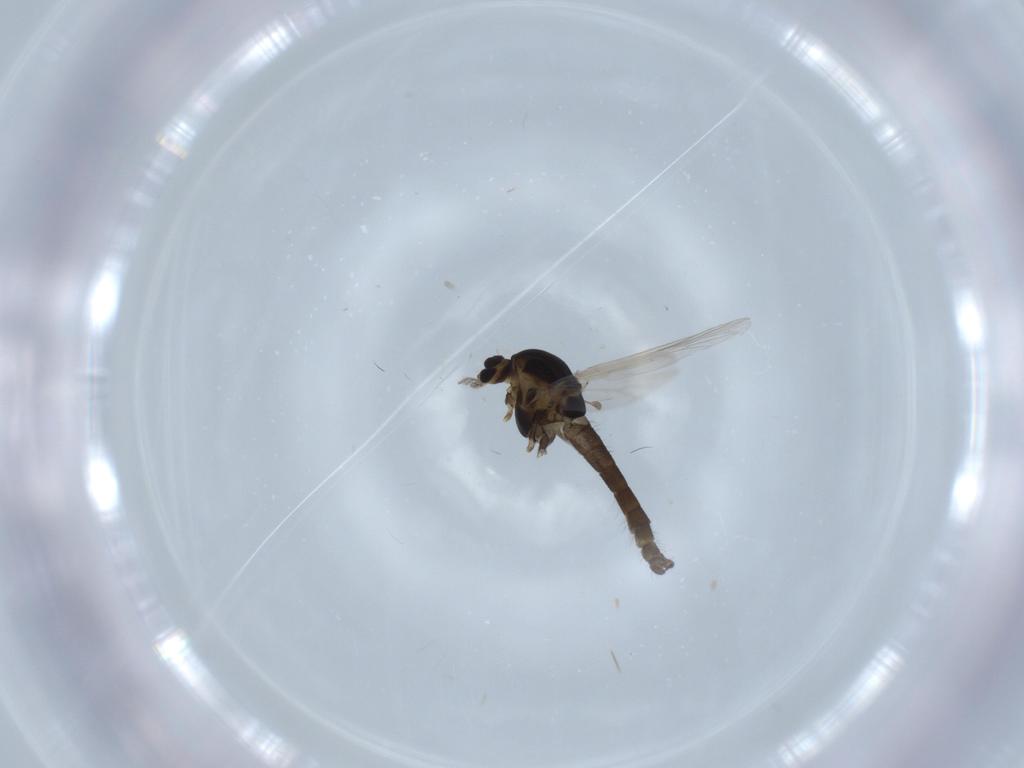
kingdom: Animalia
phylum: Arthropoda
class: Insecta
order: Diptera
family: Chironomidae
